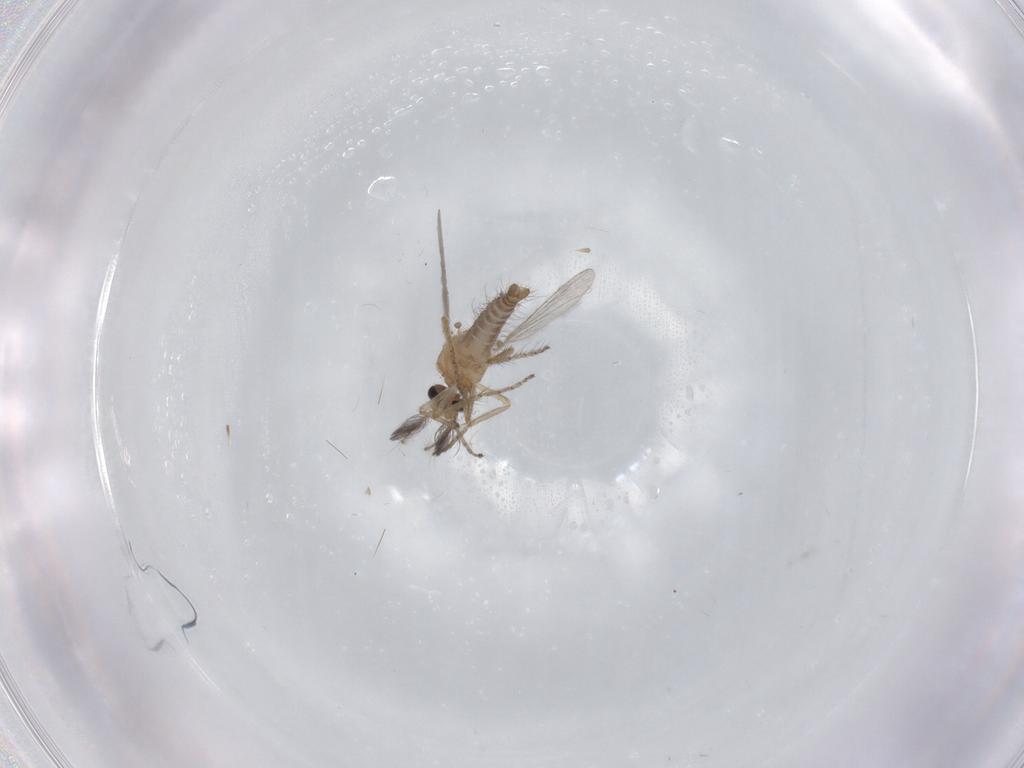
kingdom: Animalia
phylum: Arthropoda
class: Insecta
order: Diptera
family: Ceratopogonidae
